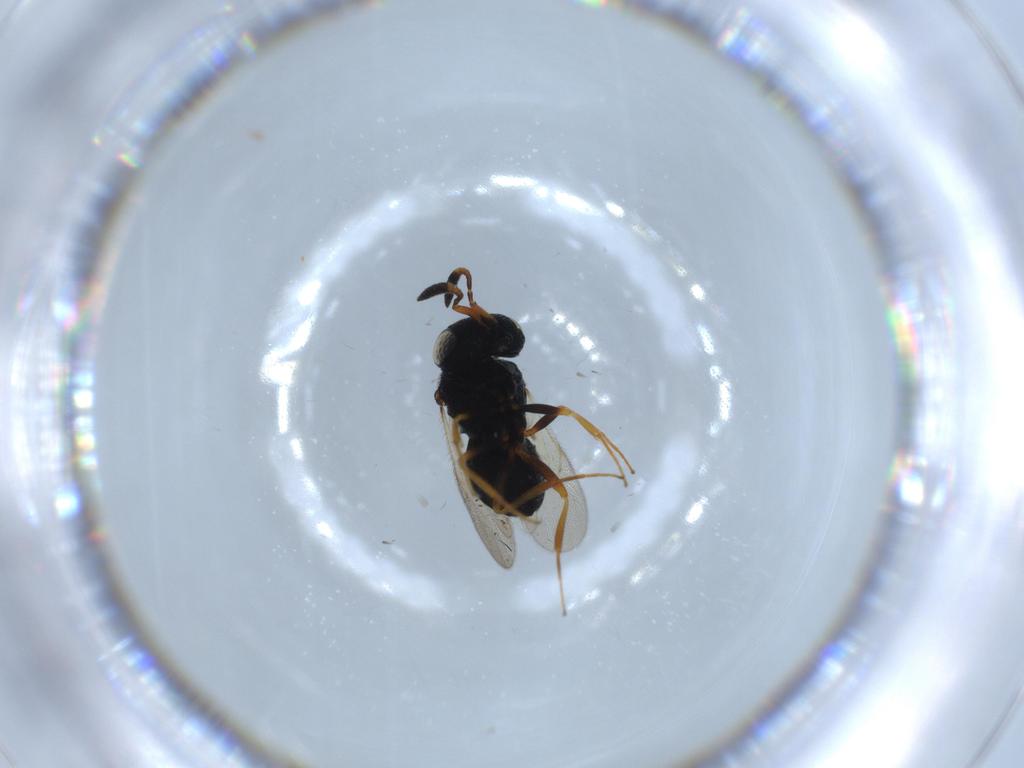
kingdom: Animalia
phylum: Arthropoda
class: Insecta
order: Hymenoptera
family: Scelionidae
